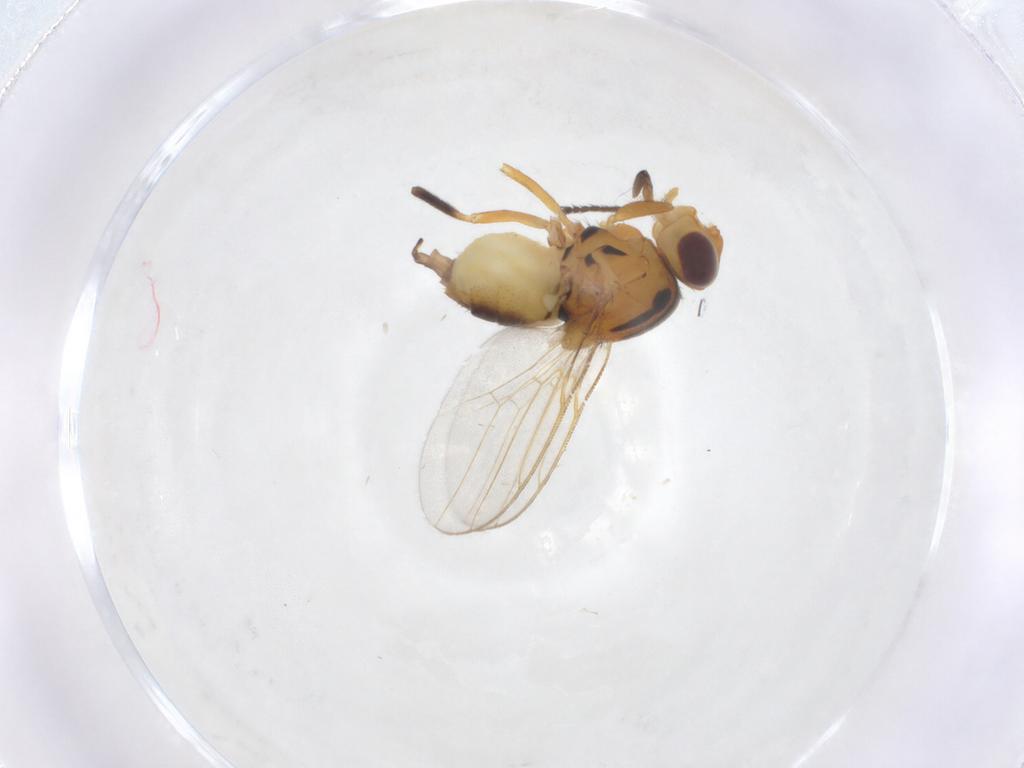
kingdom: Animalia
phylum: Arthropoda
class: Insecta
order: Diptera
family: Chloropidae
